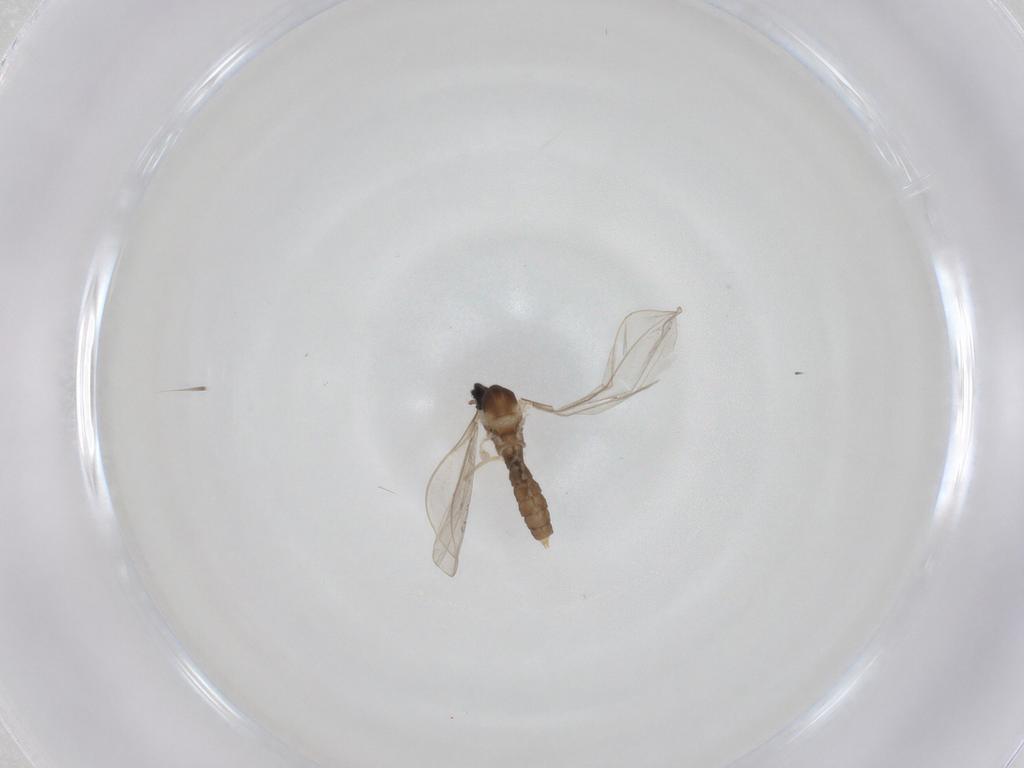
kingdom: Animalia
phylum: Arthropoda
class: Insecta
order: Diptera
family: Cecidomyiidae
